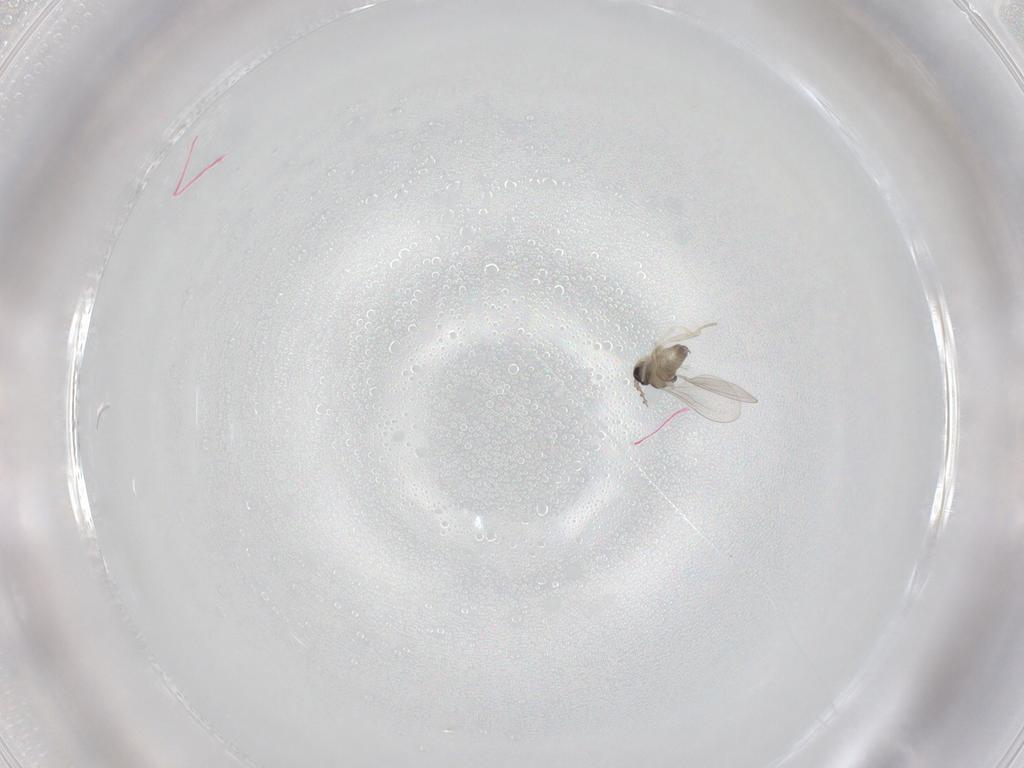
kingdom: Animalia
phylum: Arthropoda
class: Insecta
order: Diptera
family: Cecidomyiidae
